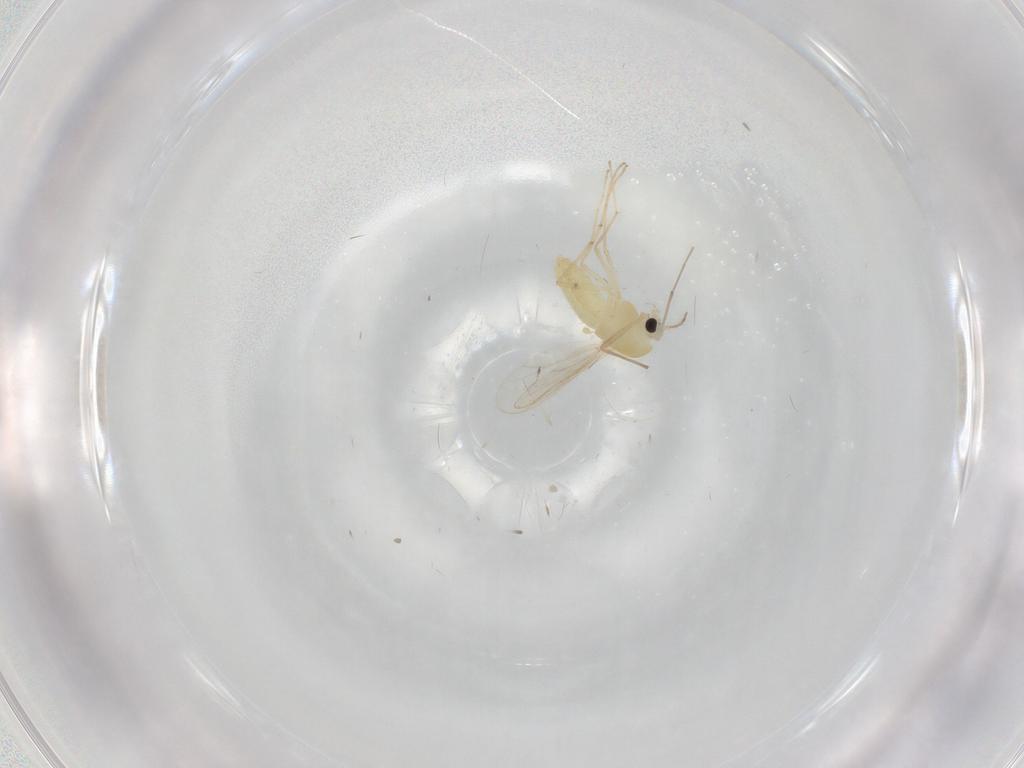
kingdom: Animalia
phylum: Arthropoda
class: Insecta
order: Diptera
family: Chironomidae
